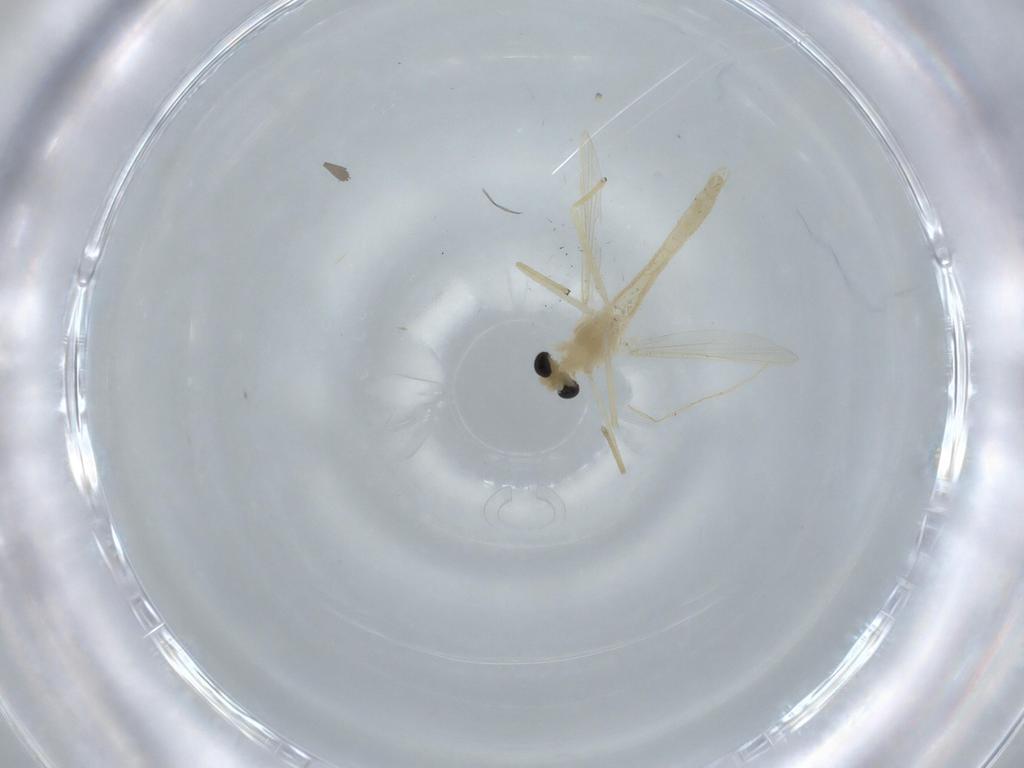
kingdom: Animalia
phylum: Arthropoda
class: Insecta
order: Diptera
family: Chironomidae
